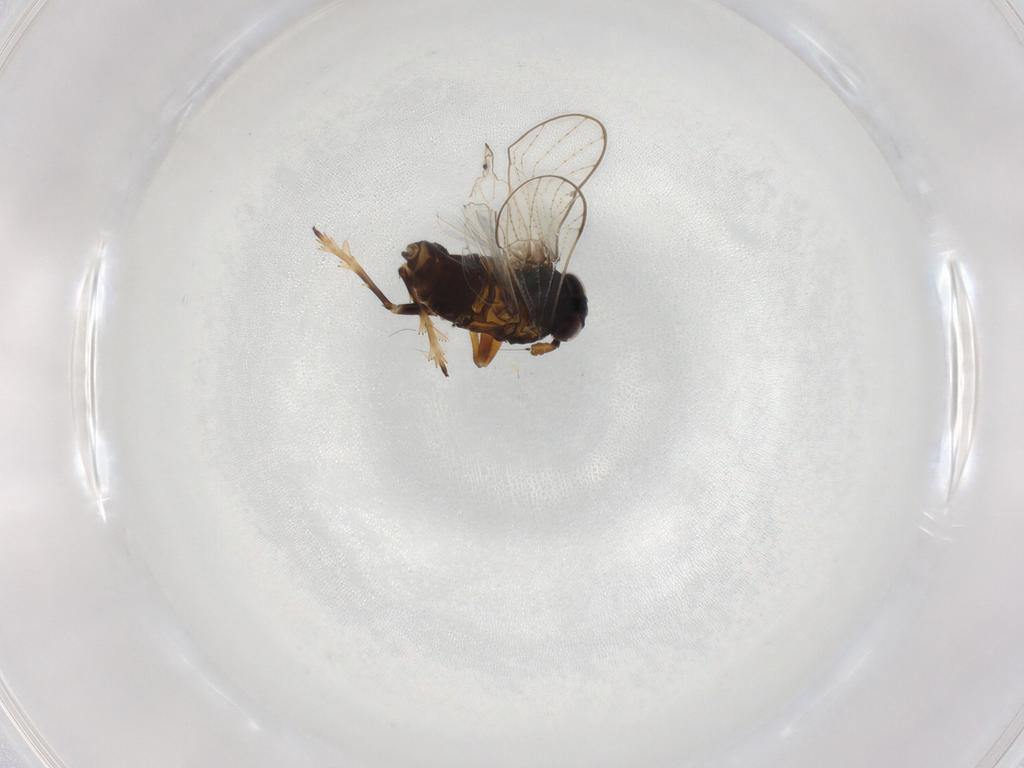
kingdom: Animalia
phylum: Arthropoda
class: Insecta
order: Hemiptera
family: Delphacidae
